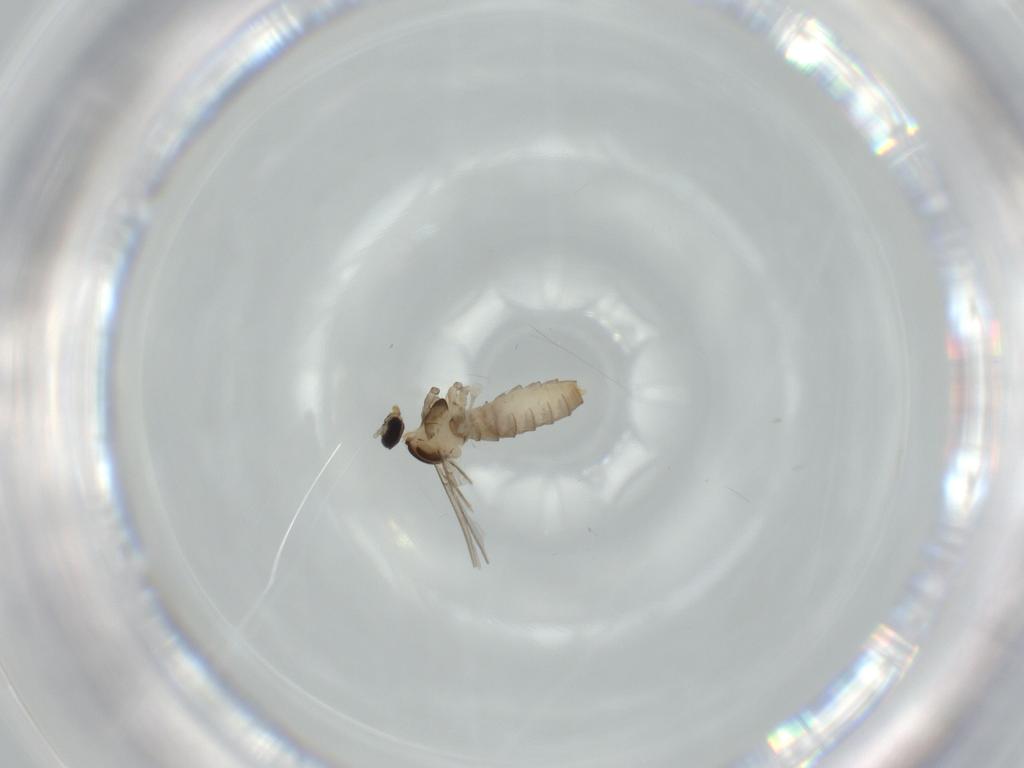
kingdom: Animalia
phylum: Arthropoda
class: Insecta
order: Diptera
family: Cecidomyiidae
